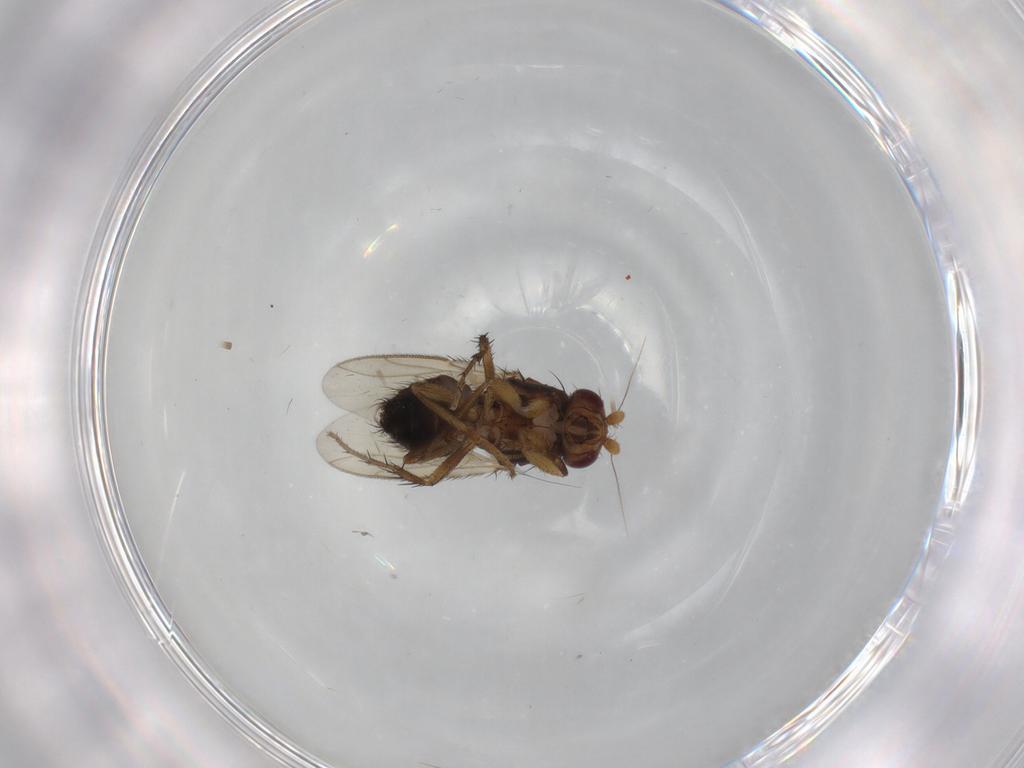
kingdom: Animalia
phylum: Arthropoda
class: Insecta
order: Diptera
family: Sphaeroceridae
